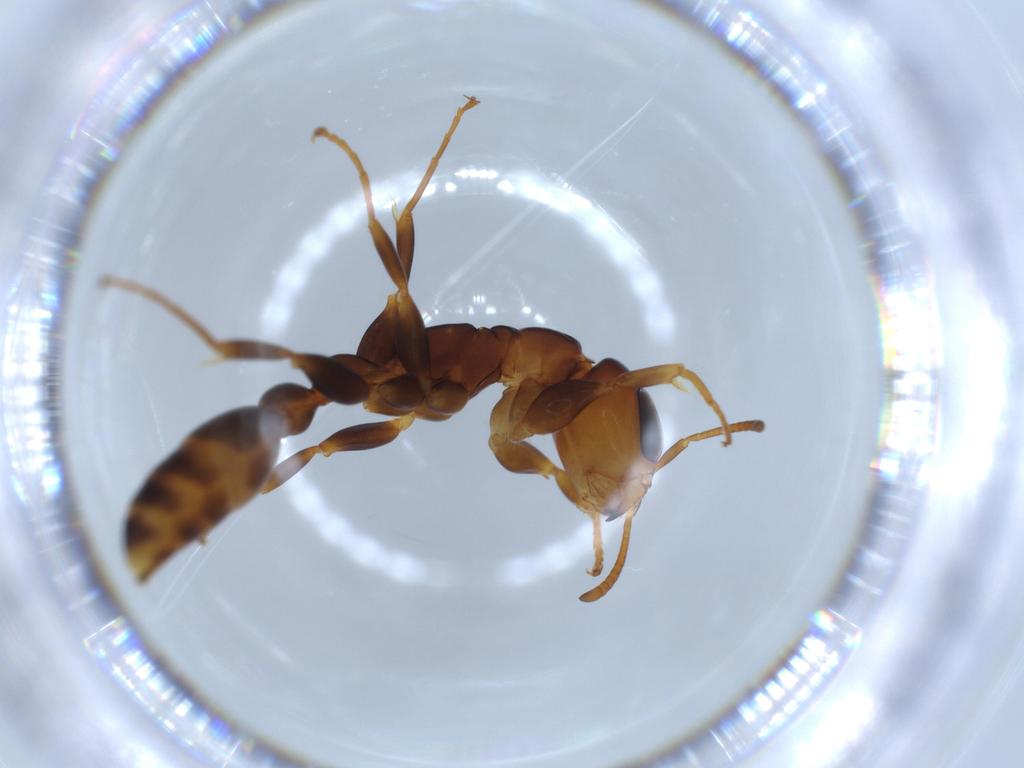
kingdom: Animalia
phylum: Arthropoda
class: Insecta
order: Hymenoptera
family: Formicidae
